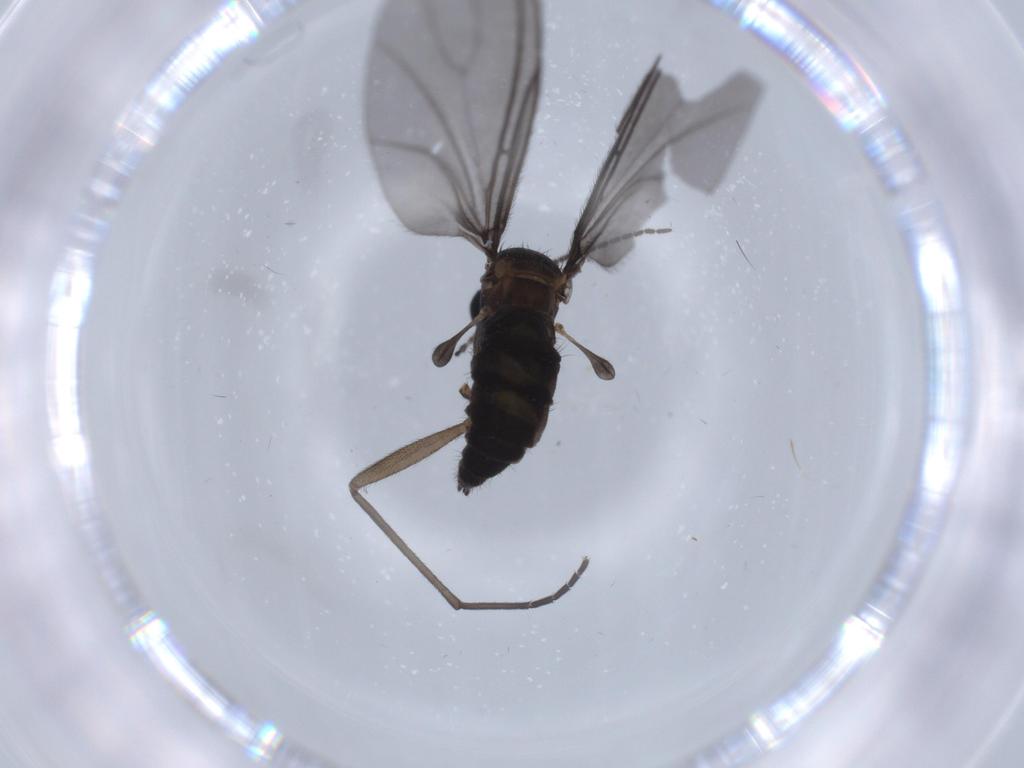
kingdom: Animalia
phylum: Arthropoda
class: Insecta
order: Diptera
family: Sciaridae
